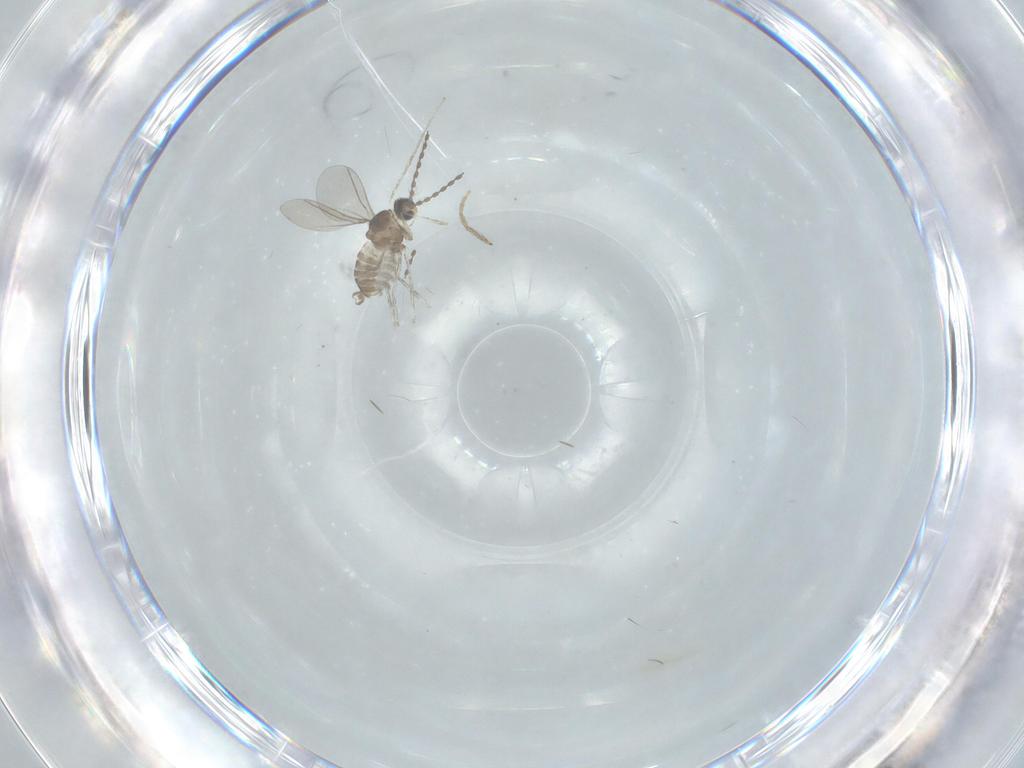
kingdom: Animalia
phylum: Arthropoda
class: Insecta
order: Diptera
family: Cecidomyiidae
